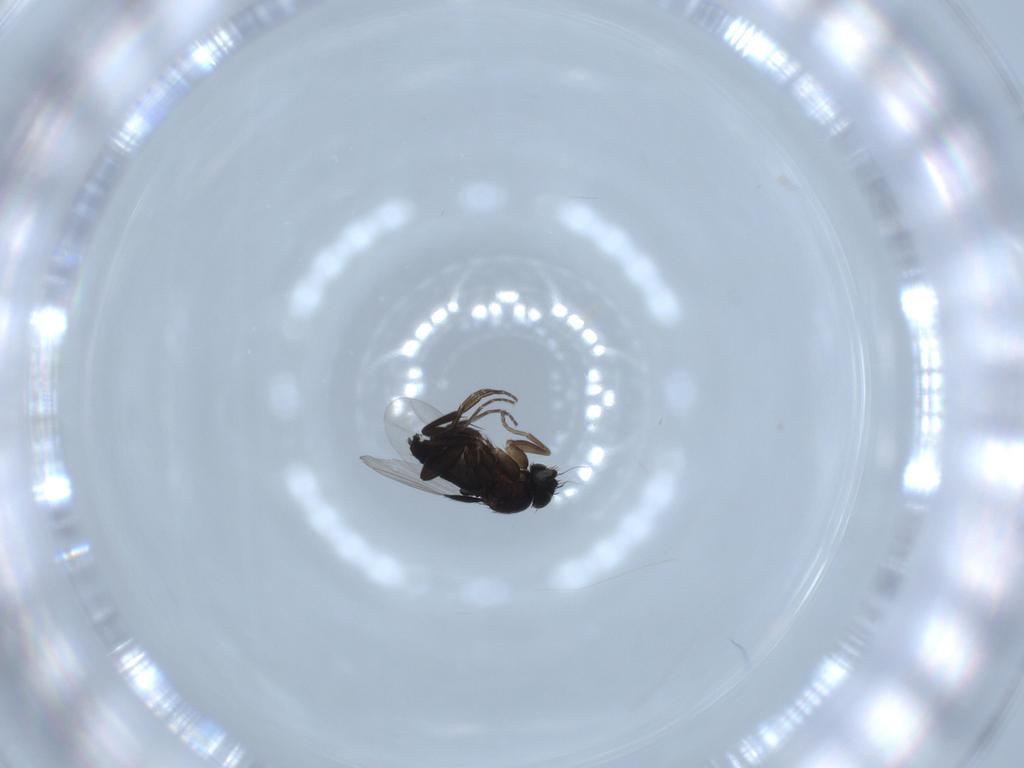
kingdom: Animalia
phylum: Arthropoda
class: Insecta
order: Diptera
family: Phoridae
